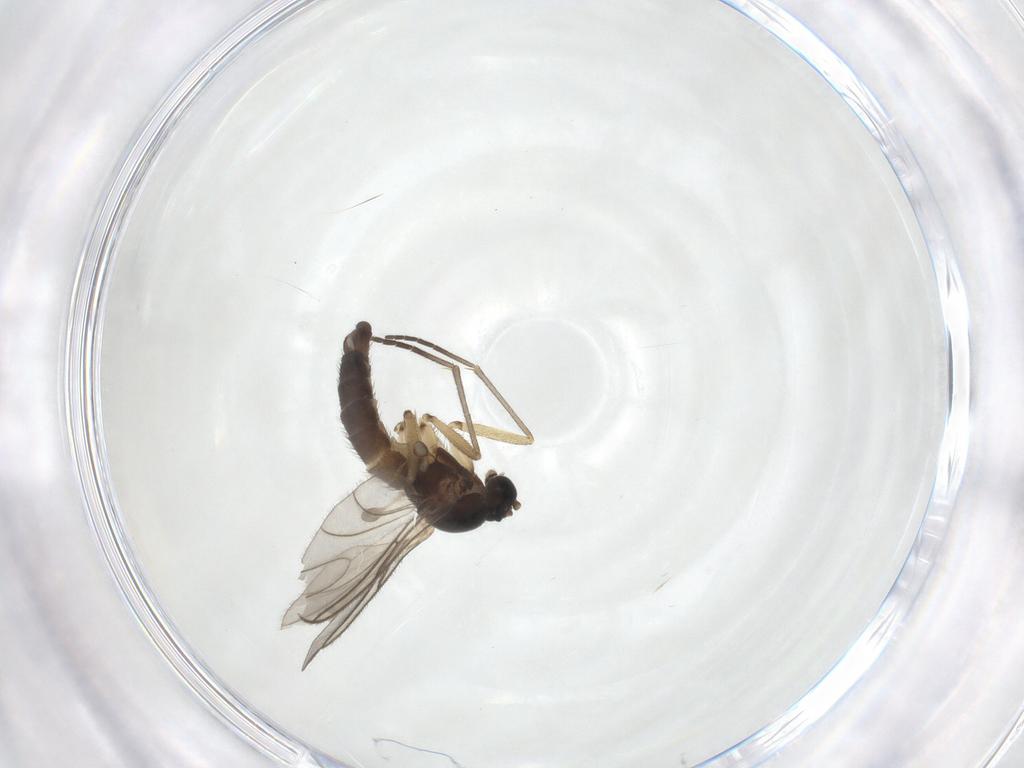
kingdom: Animalia
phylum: Arthropoda
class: Insecta
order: Diptera
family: Sciaridae
